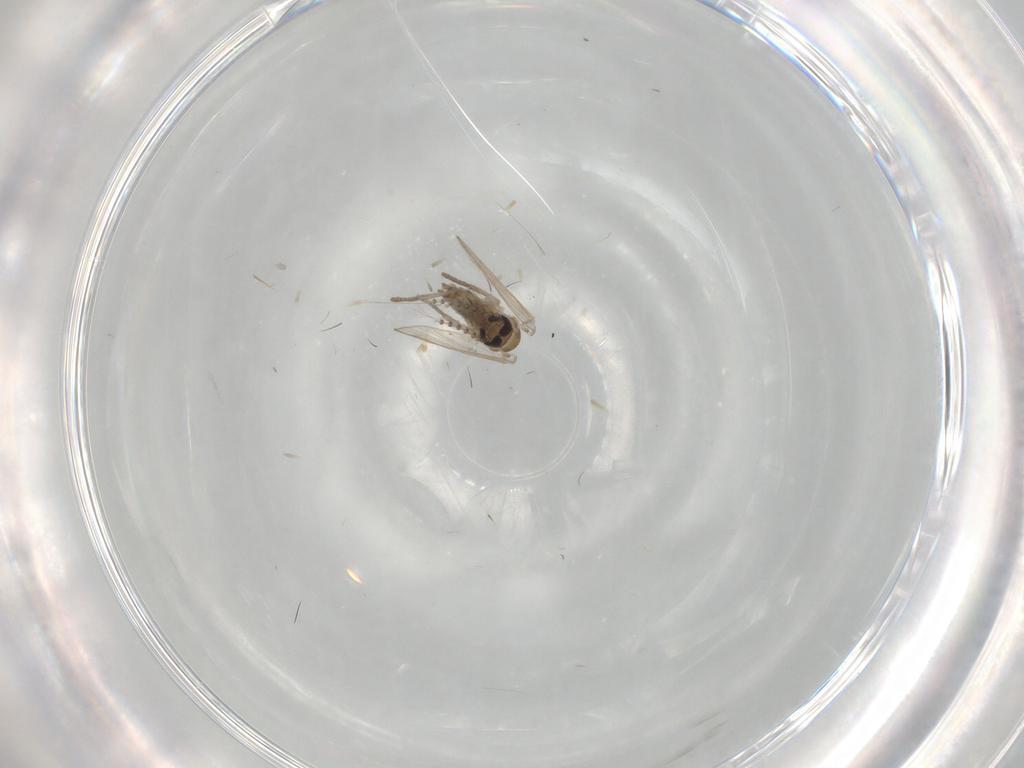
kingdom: Animalia
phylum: Arthropoda
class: Insecta
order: Diptera
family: Psychodidae
